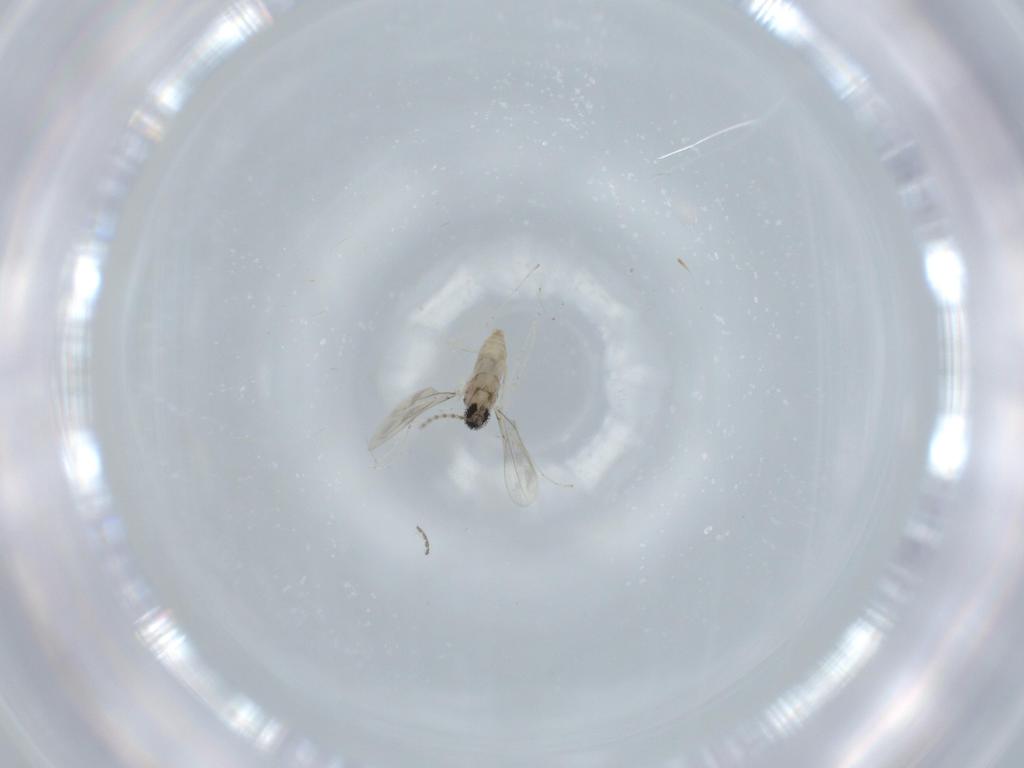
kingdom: Animalia
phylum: Arthropoda
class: Insecta
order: Diptera
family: Cecidomyiidae
